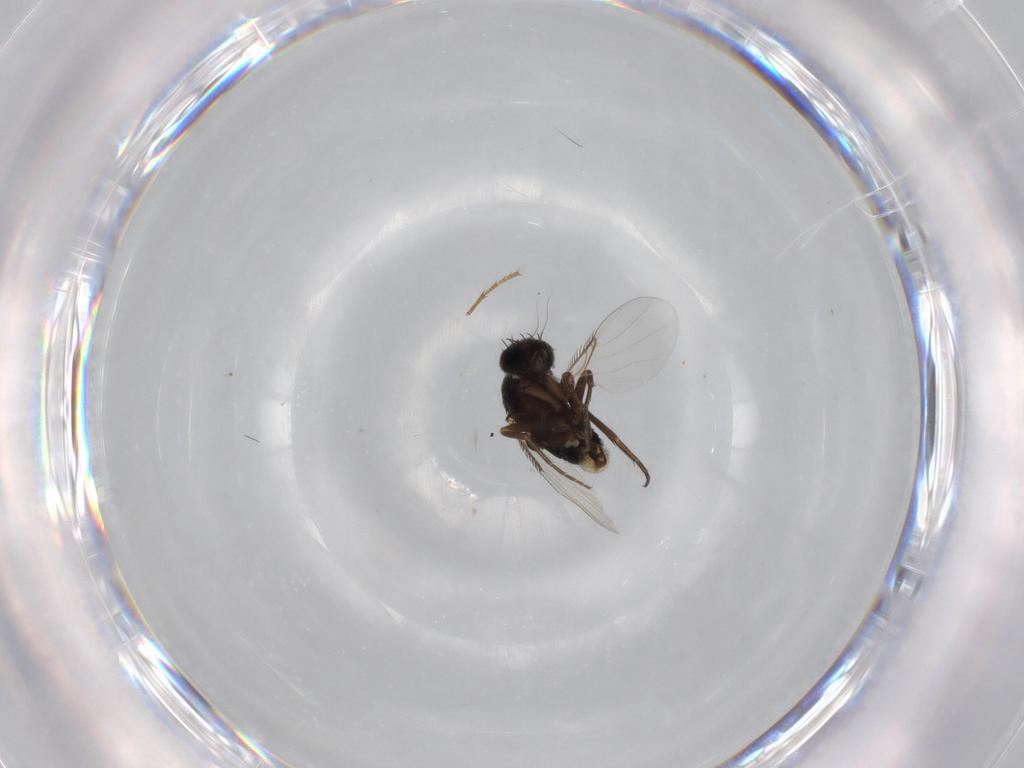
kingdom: Animalia
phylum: Arthropoda
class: Insecta
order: Diptera
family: Phoridae
